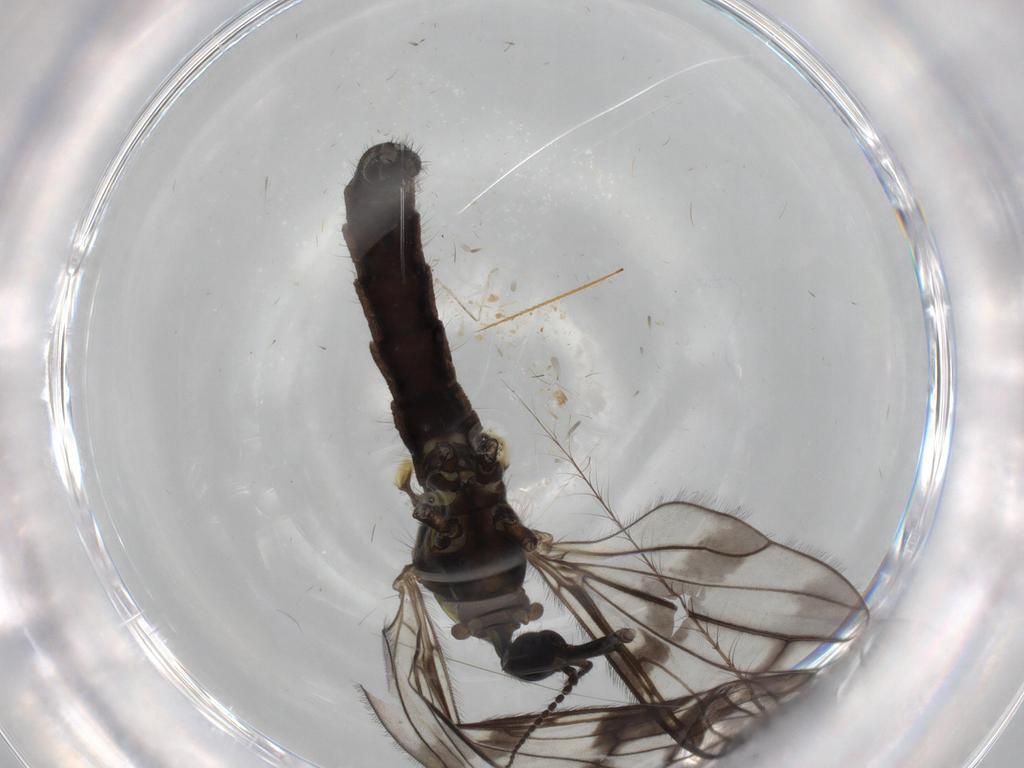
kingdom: Animalia
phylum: Arthropoda
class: Insecta
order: Diptera
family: Limoniidae
